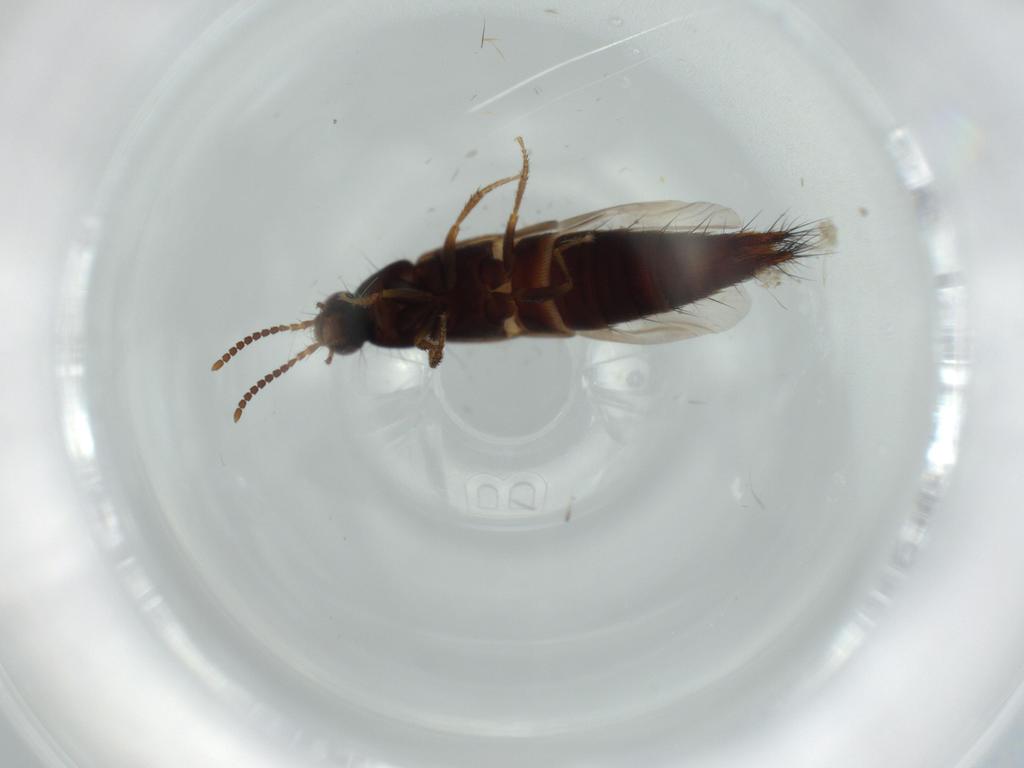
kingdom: Animalia
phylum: Arthropoda
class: Insecta
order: Coleoptera
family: Staphylinidae
